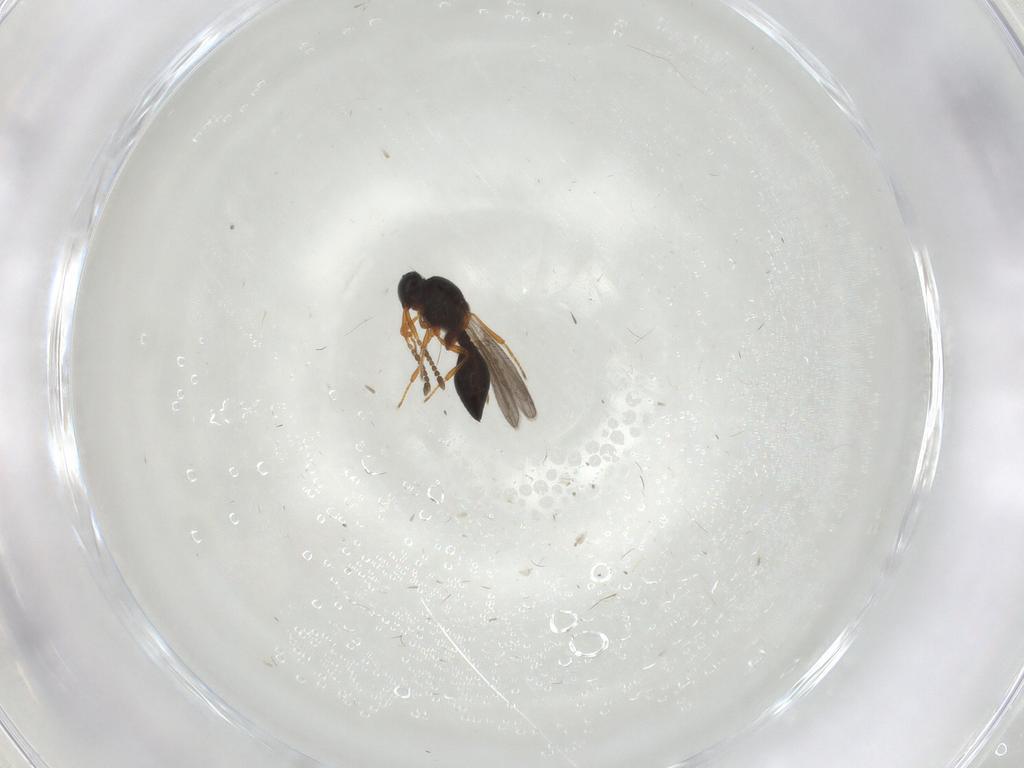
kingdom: Animalia
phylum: Arthropoda
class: Insecta
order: Hymenoptera
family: Platygastridae
